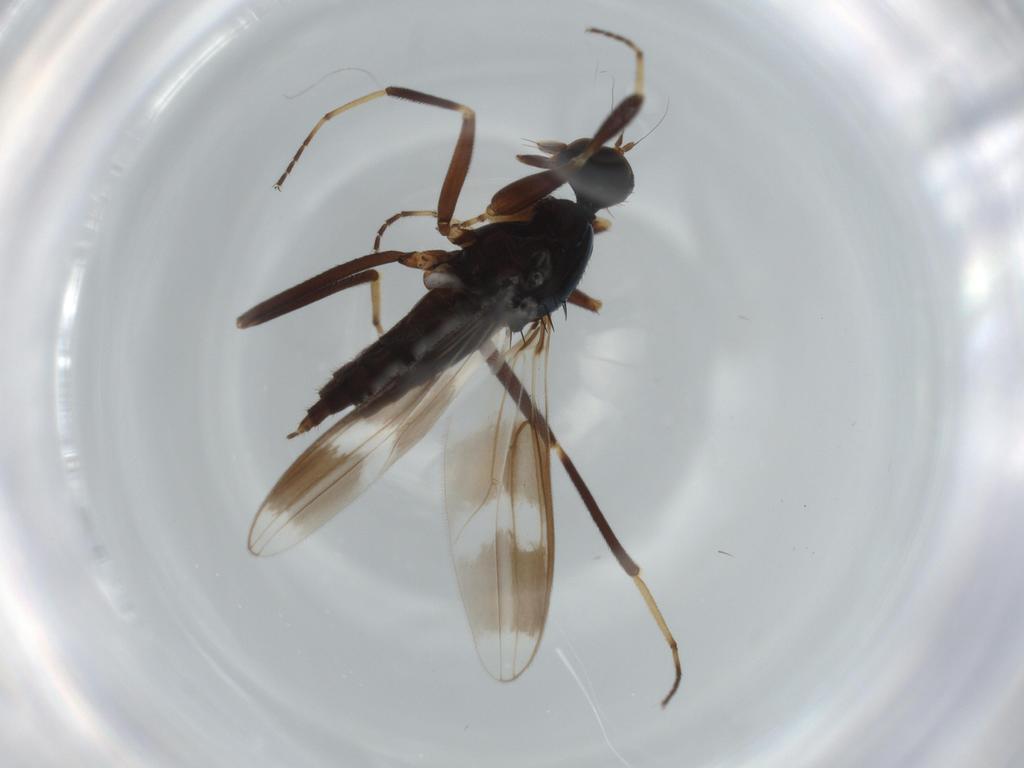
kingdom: Animalia
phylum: Arthropoda
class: Insecta
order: Diptera
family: Hybotidae
